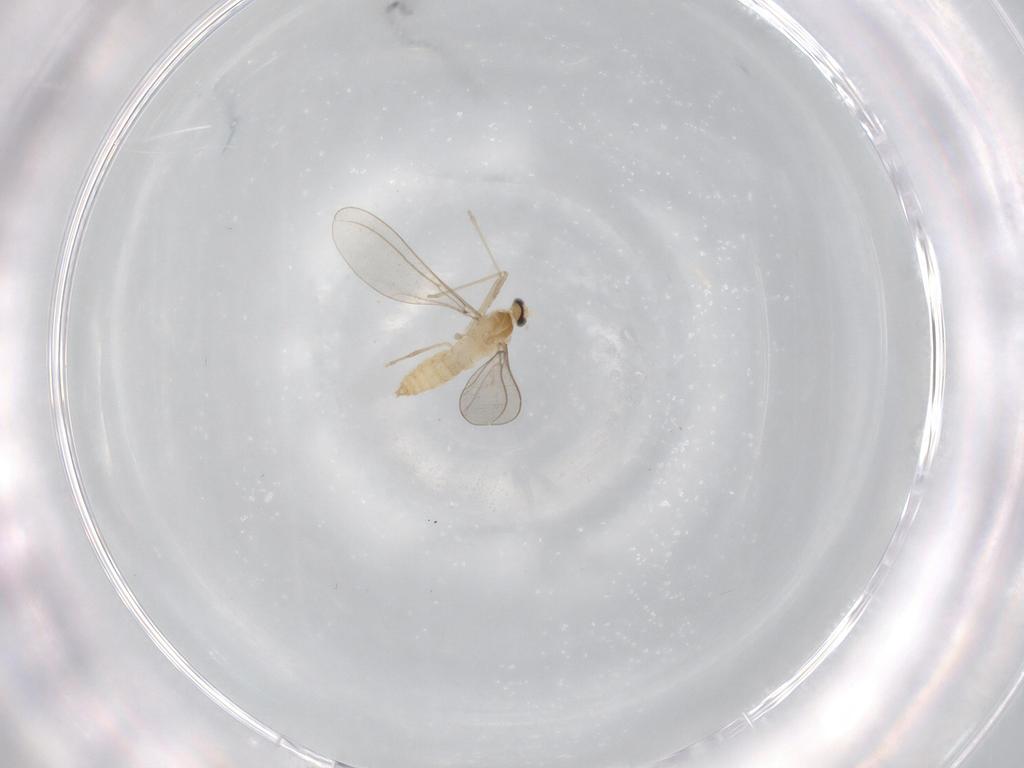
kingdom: Animalia
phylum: Arthropoda
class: Insecta
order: Diptera
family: Cecidomyiidae
